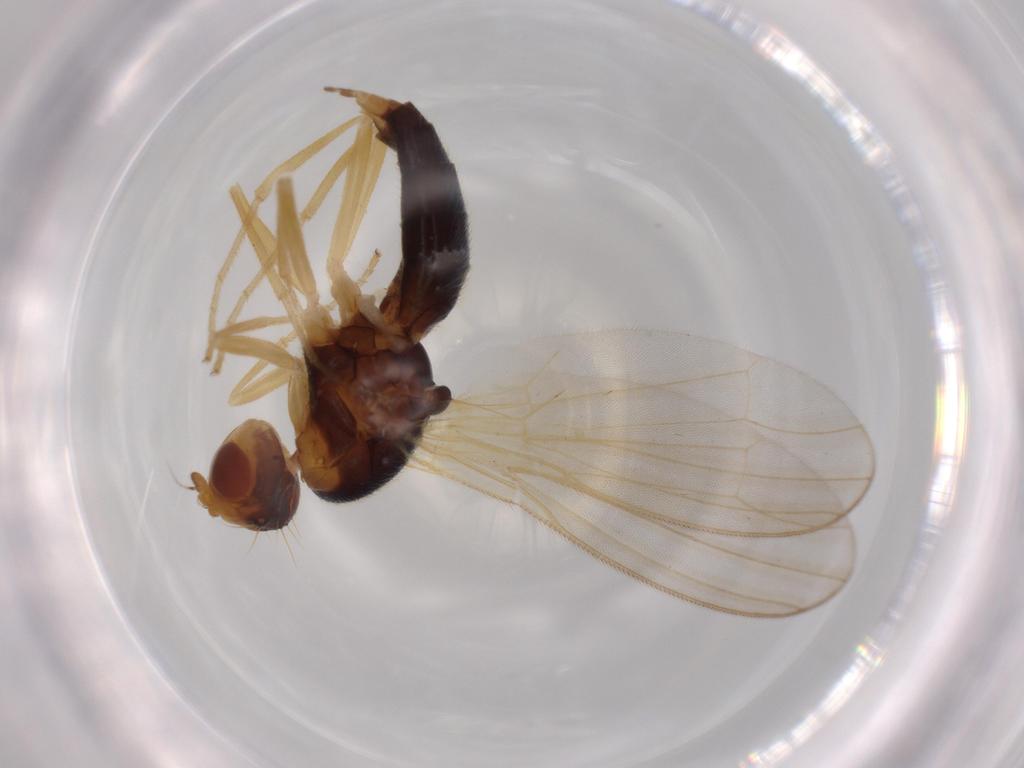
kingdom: Animalia
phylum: Arthropoda
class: Insecta
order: Diptera
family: Psilidae
